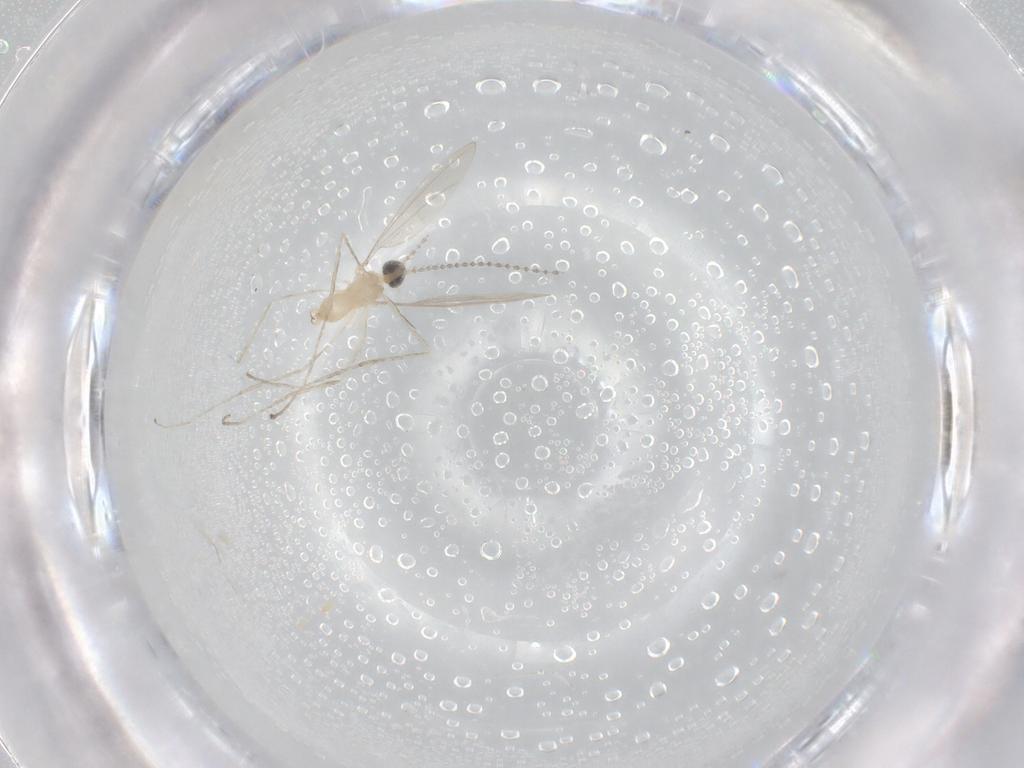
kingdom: Animalia
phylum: Arthropoda
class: Insecta
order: Diptera
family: Cecidomyiidae
